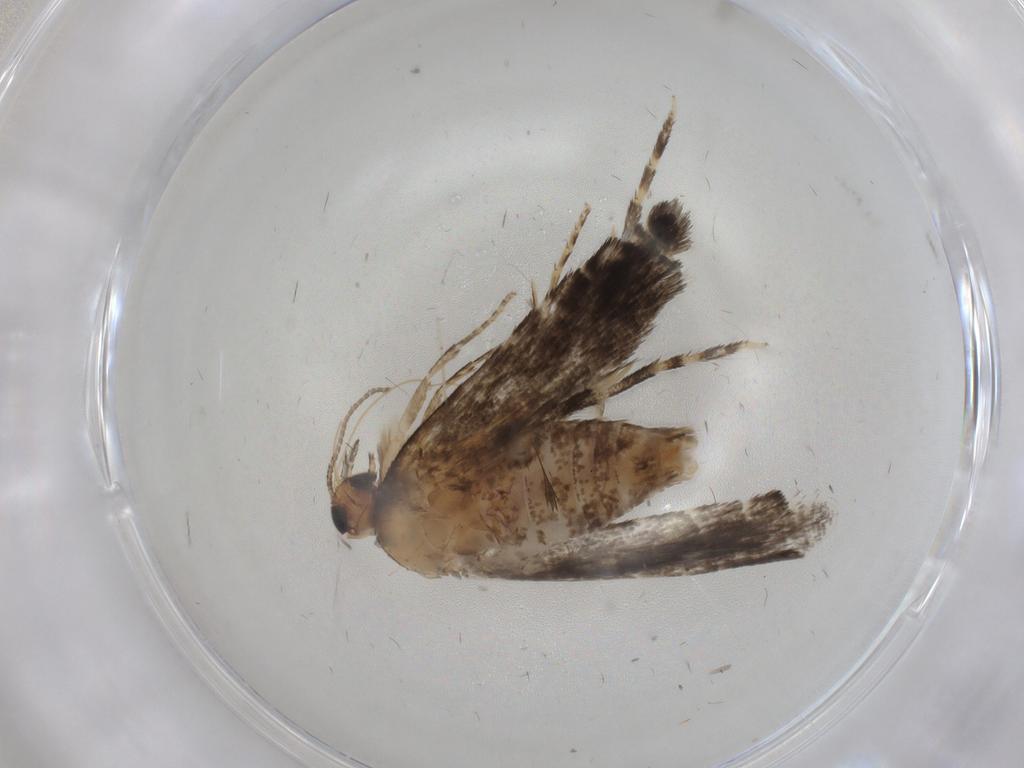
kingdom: Animalia
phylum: Arthropoda
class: Insecta
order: Lepidoptera
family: Glyphipterigidae
